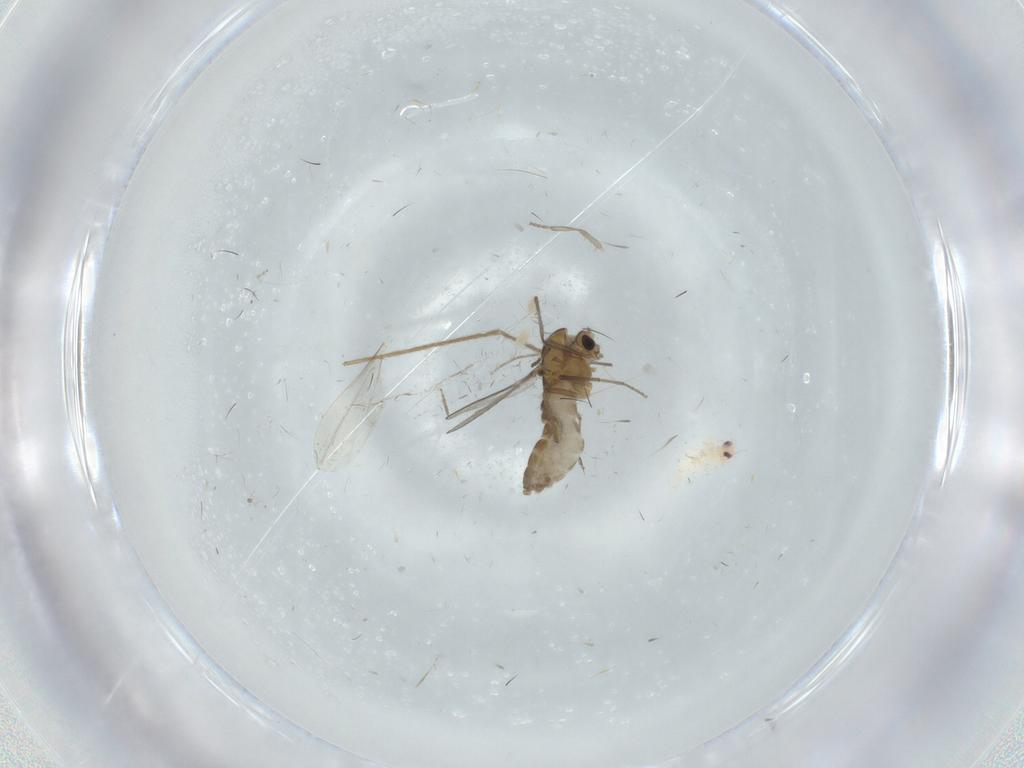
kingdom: Animalia
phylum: Arthropoda
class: Insecta
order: Diptera
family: Chironomidae
